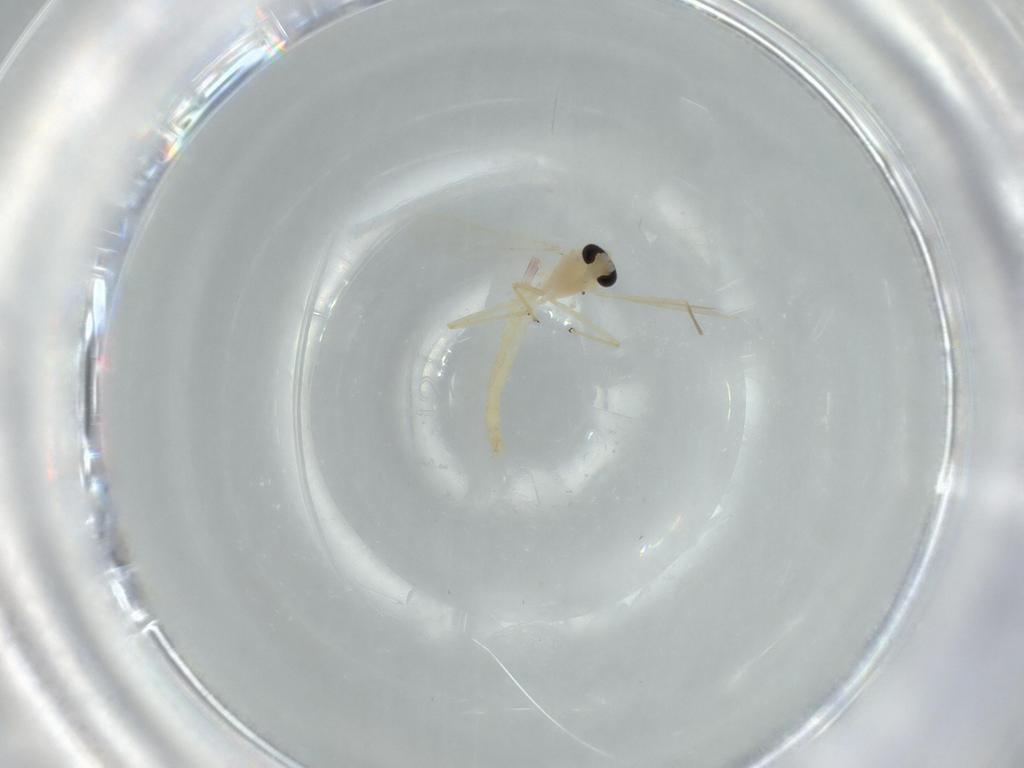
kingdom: Animalia
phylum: Arthropoda
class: Insecta
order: Diptera
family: Chironomidae
